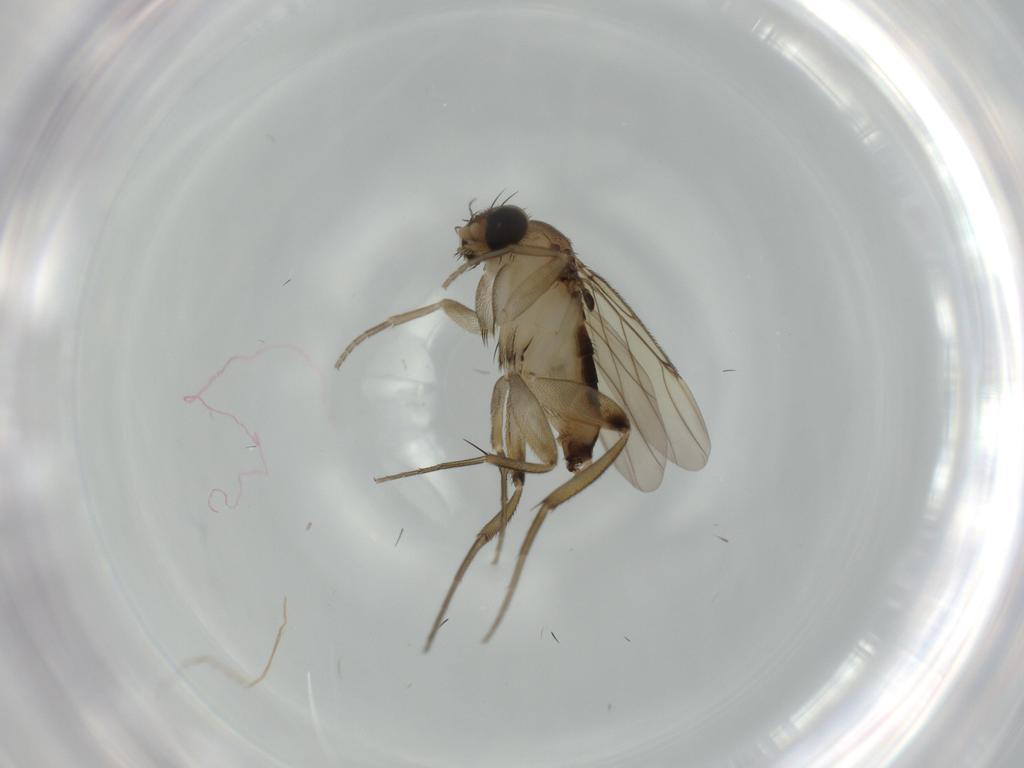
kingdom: Animalia
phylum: Arthropoda
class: Insecta
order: Diptera
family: Chironomidae
